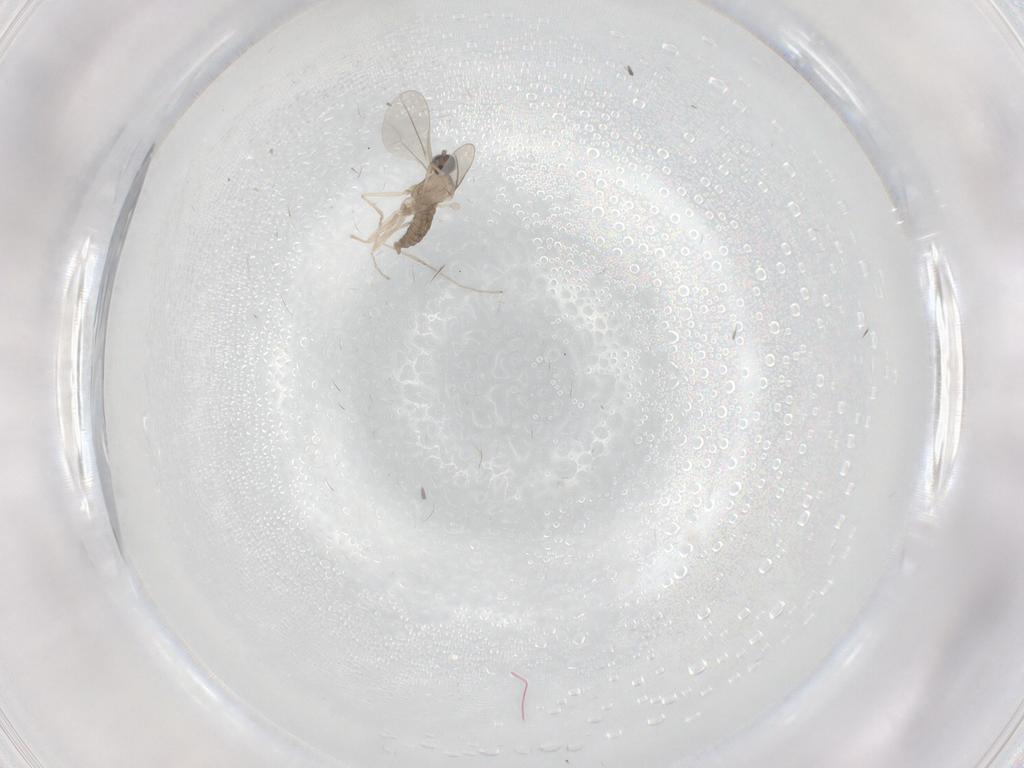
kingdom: Animalia
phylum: Arthropoda
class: Insecta
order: Diptera
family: Cecidomyiidae
